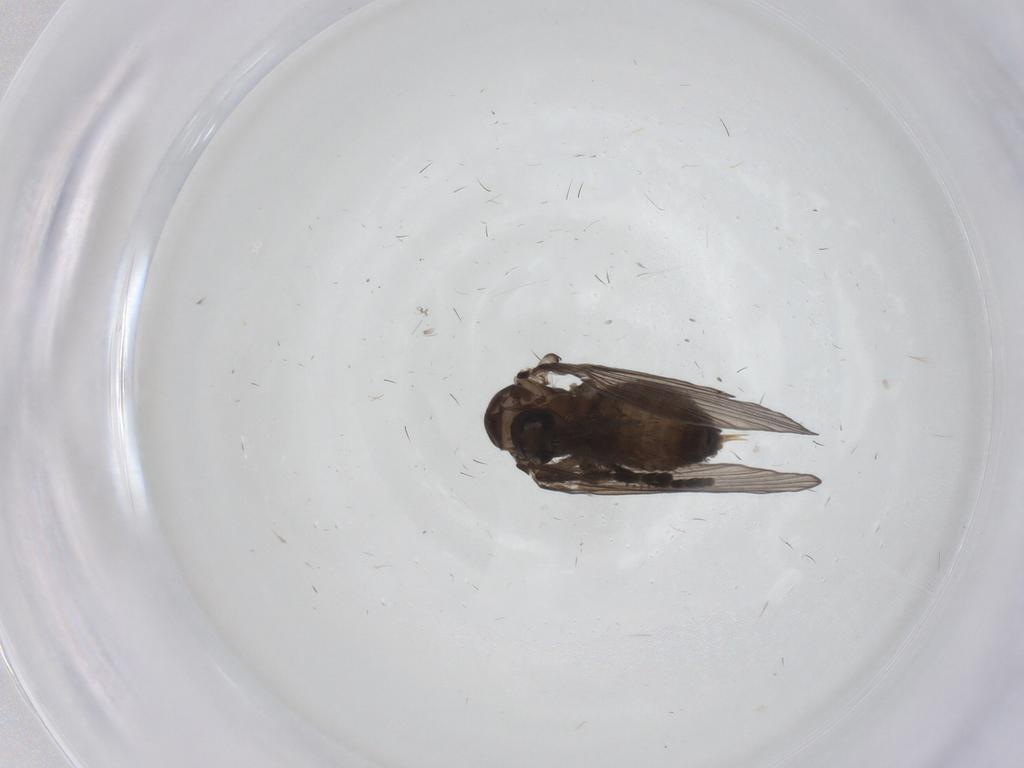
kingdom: Animalia
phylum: Arthropoda
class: Insecta
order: Diptera
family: Psychodidae
